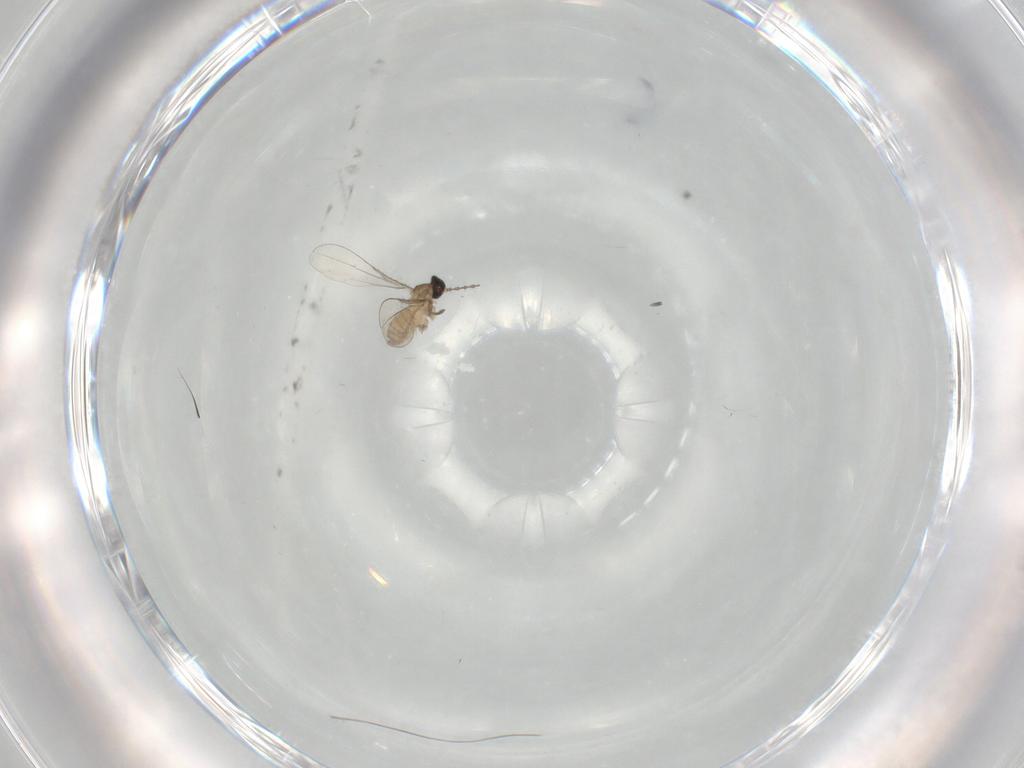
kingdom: Animalia
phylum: Arthropoda
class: Insecta
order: Diptera
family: Cecidomyiidae
